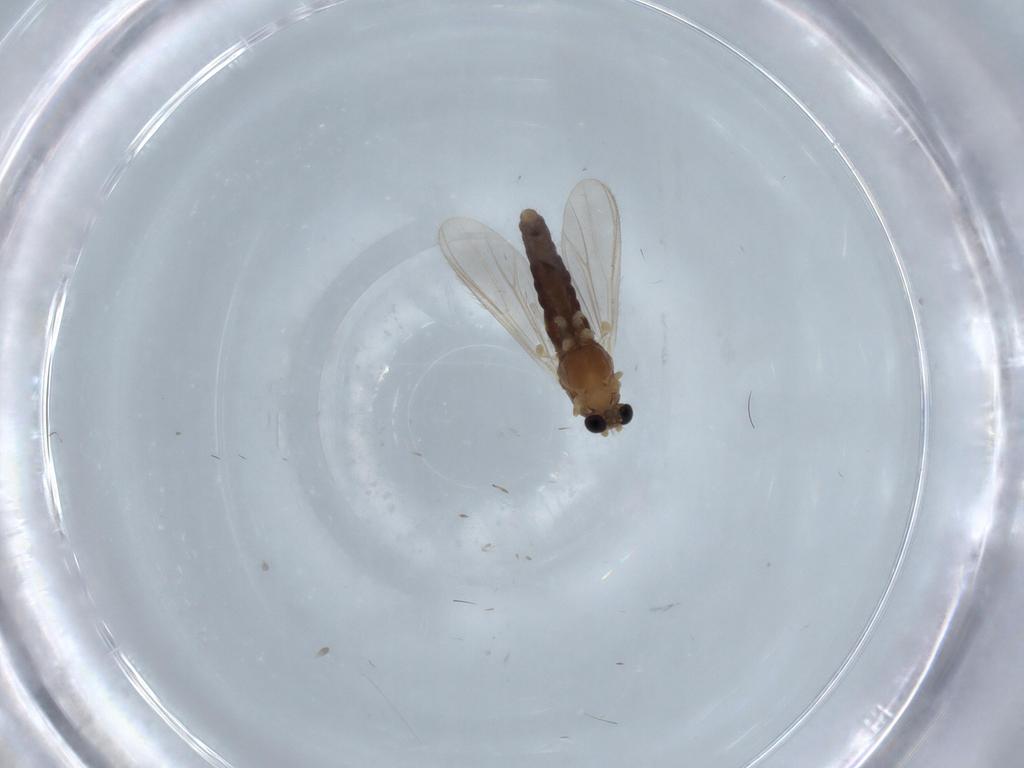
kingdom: Animalia
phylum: Arthropoda
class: Insecta
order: Diptera
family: Chironomidae
